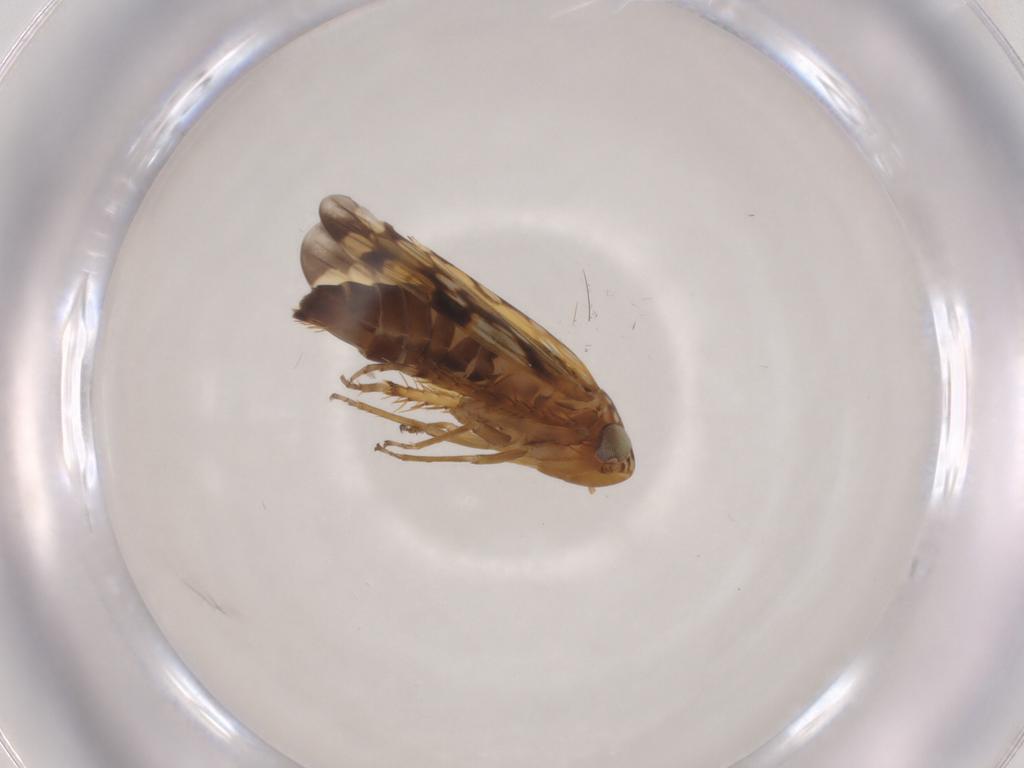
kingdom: Animalia
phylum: Arthropoda
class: Insecta
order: Hemiptera
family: Cicadellidae
